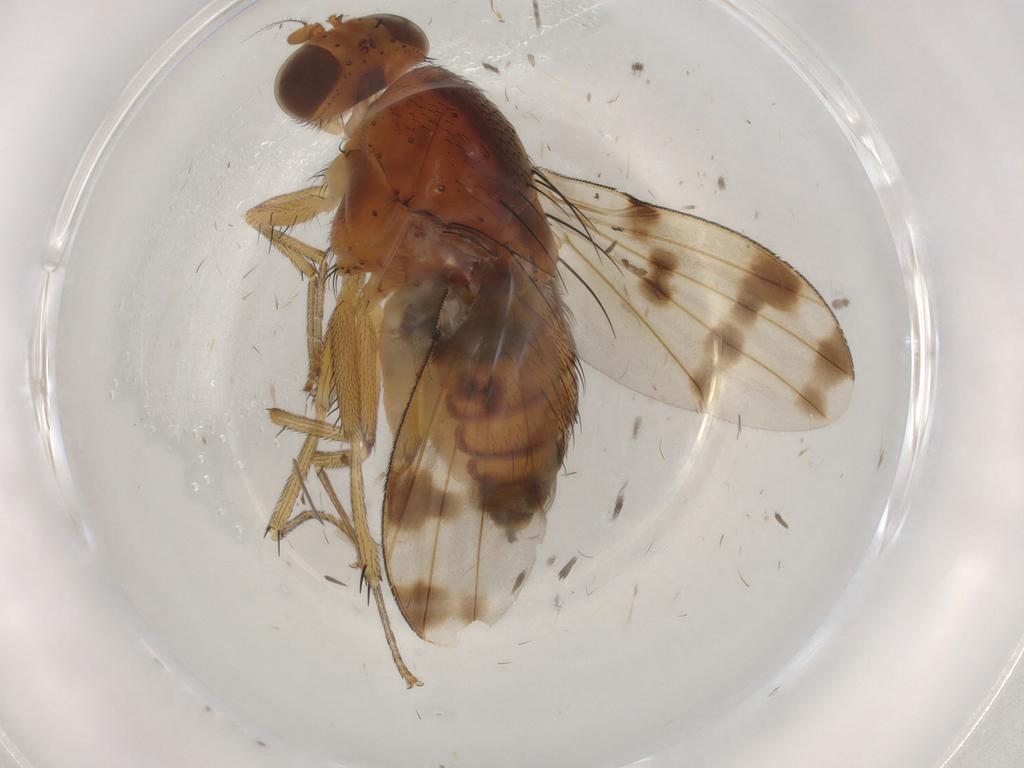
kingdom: Animalia
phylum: Arthropoda
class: Insecta
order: Diptera
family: Lauxaniidae
